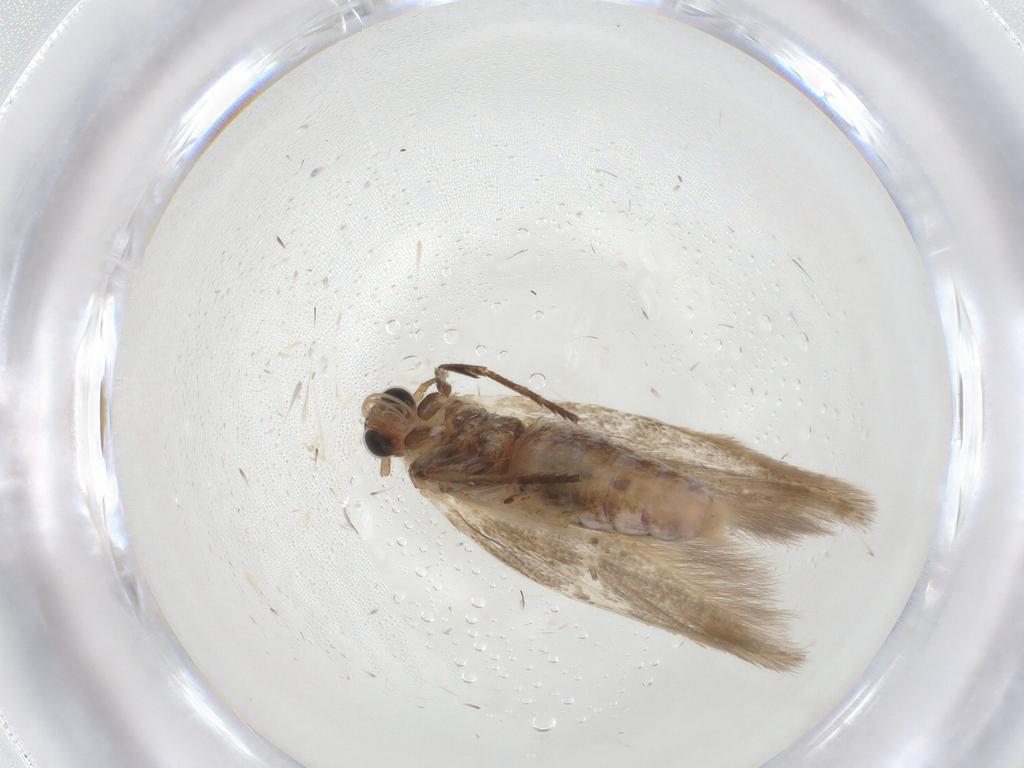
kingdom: Animalia
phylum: Arthropoda
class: Insecta
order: Lepidoptera
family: Cosmopterigidae
